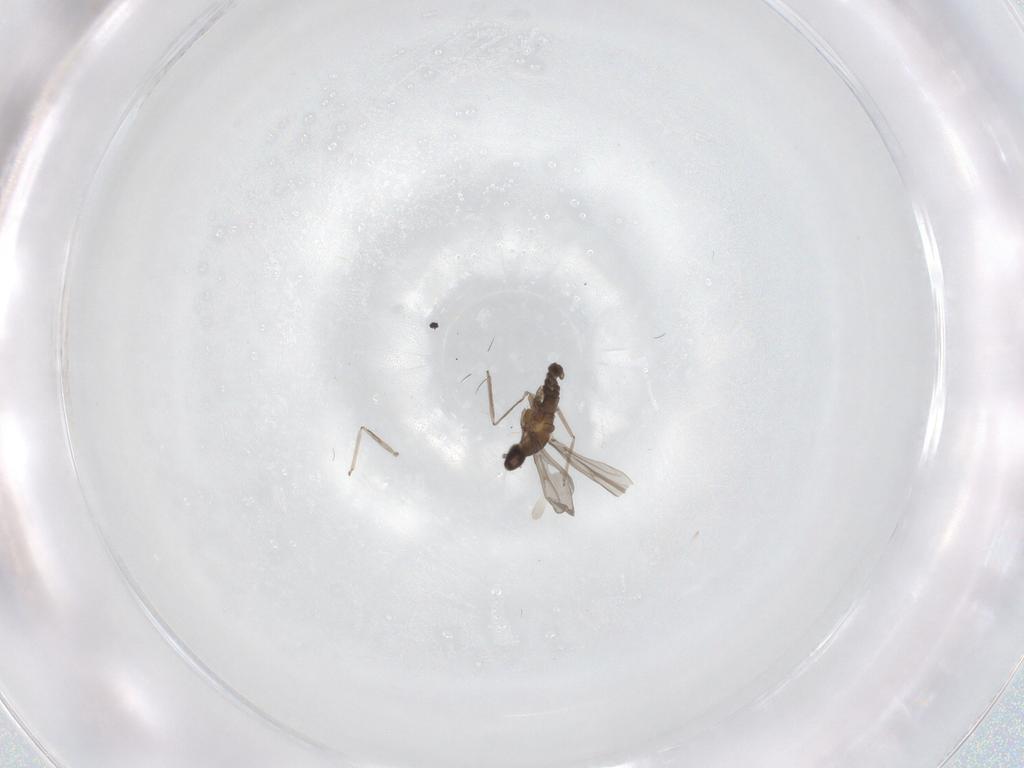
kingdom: Animalia
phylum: Arthropoda
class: Insecta
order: Diptera
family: Cecidomyiidae
